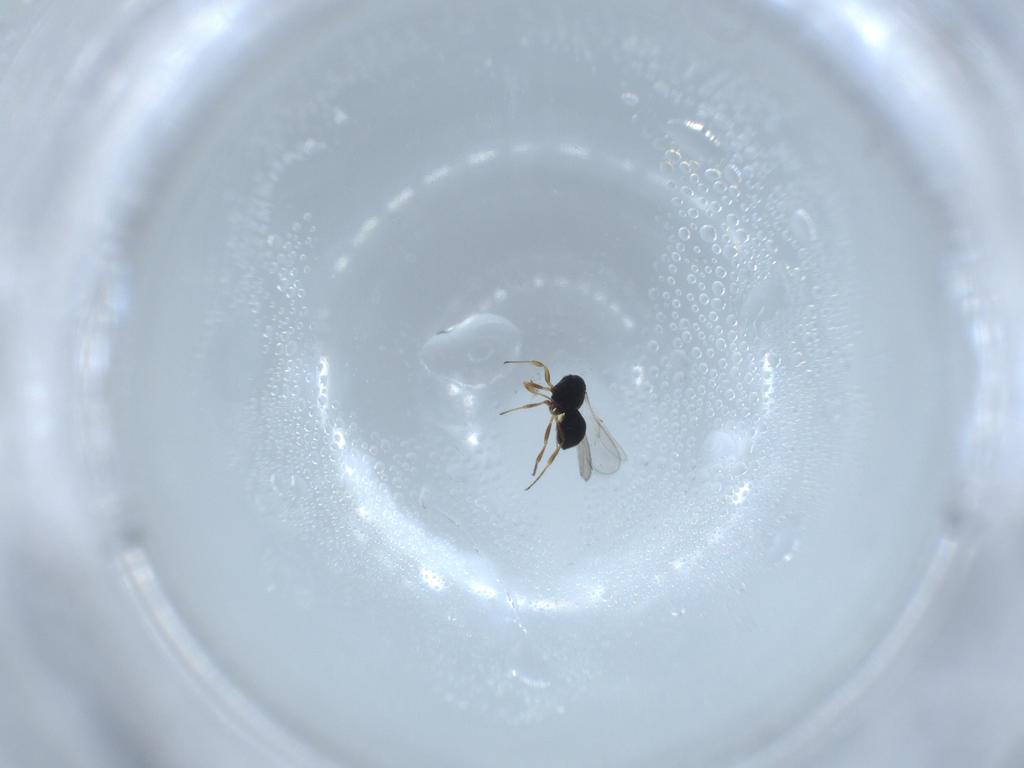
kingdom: Animalia
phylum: Arthropoda
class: Insecta
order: Hymenoptera
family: Scelionidae
